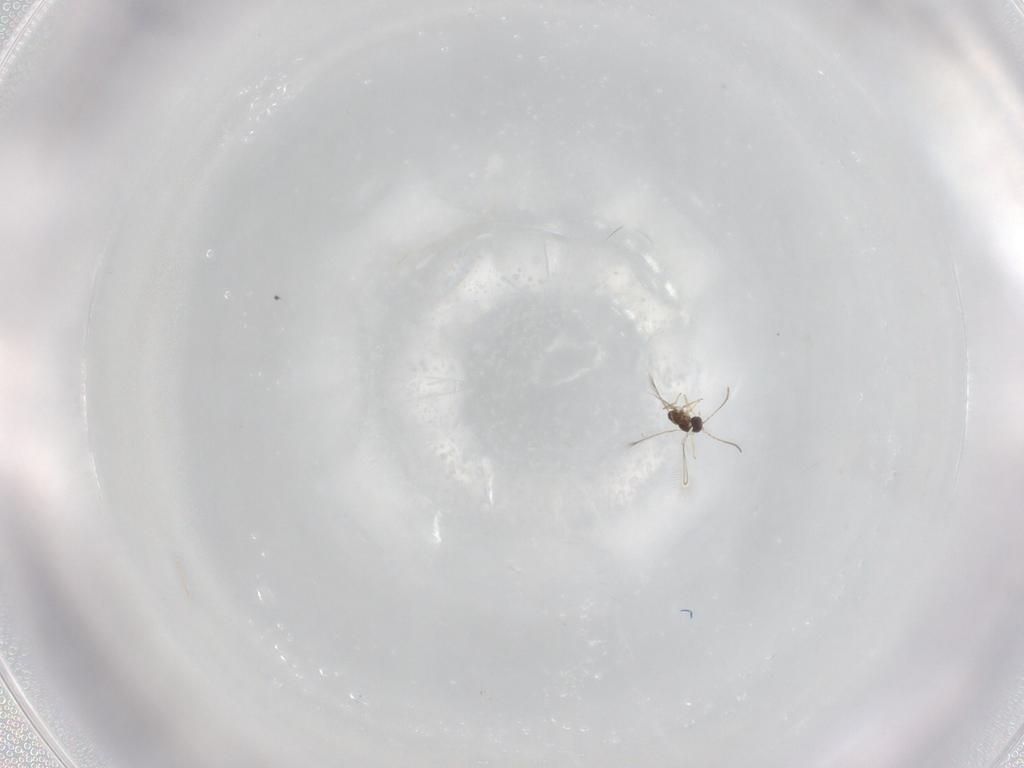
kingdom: Animalia
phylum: Arthropoda
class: Insecta
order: Hymenoptera
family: Mymaridae
